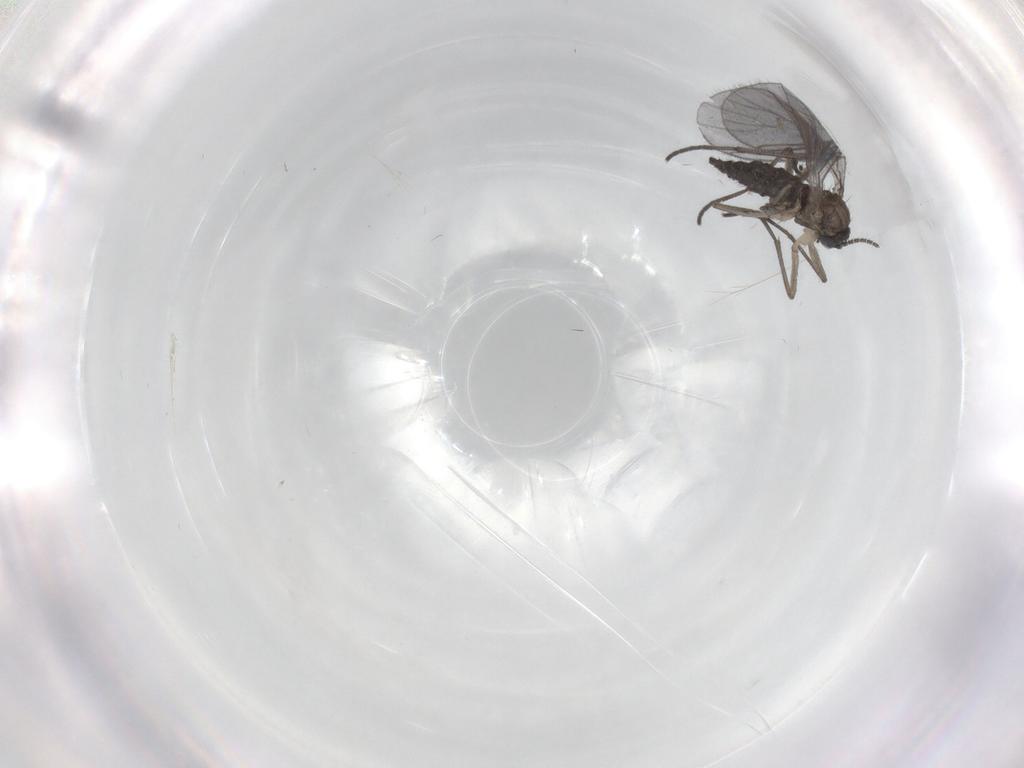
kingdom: Animalia
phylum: Arthropoda
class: Insecta
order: Diptera
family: Sciaridae
